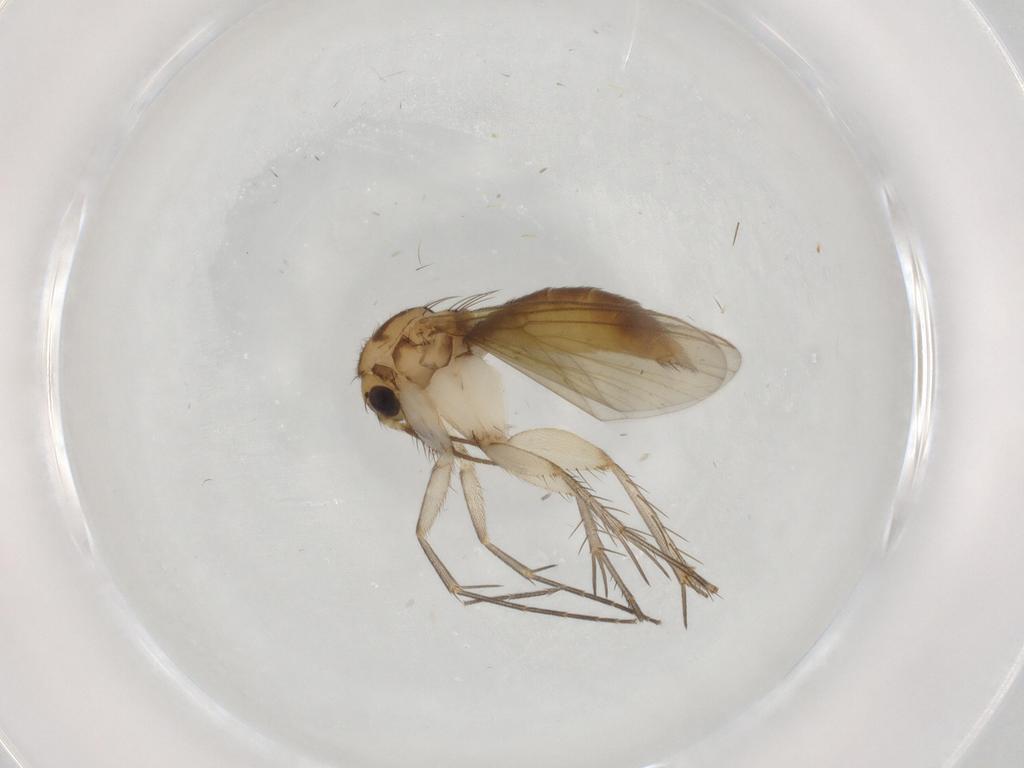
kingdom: Animalia
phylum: Arthropoda
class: Insecta
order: Diptera
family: Mycetophilidae
